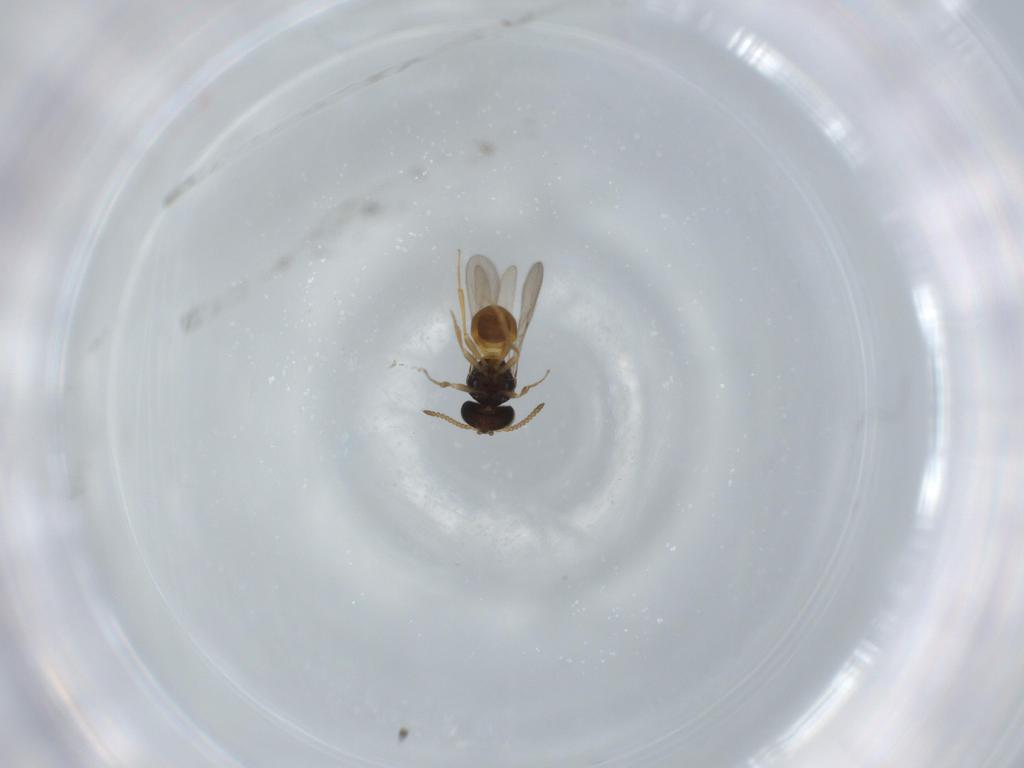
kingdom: Animalia
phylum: Arthropoda
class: Insecta
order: Hymenoptera
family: Scelionidae
